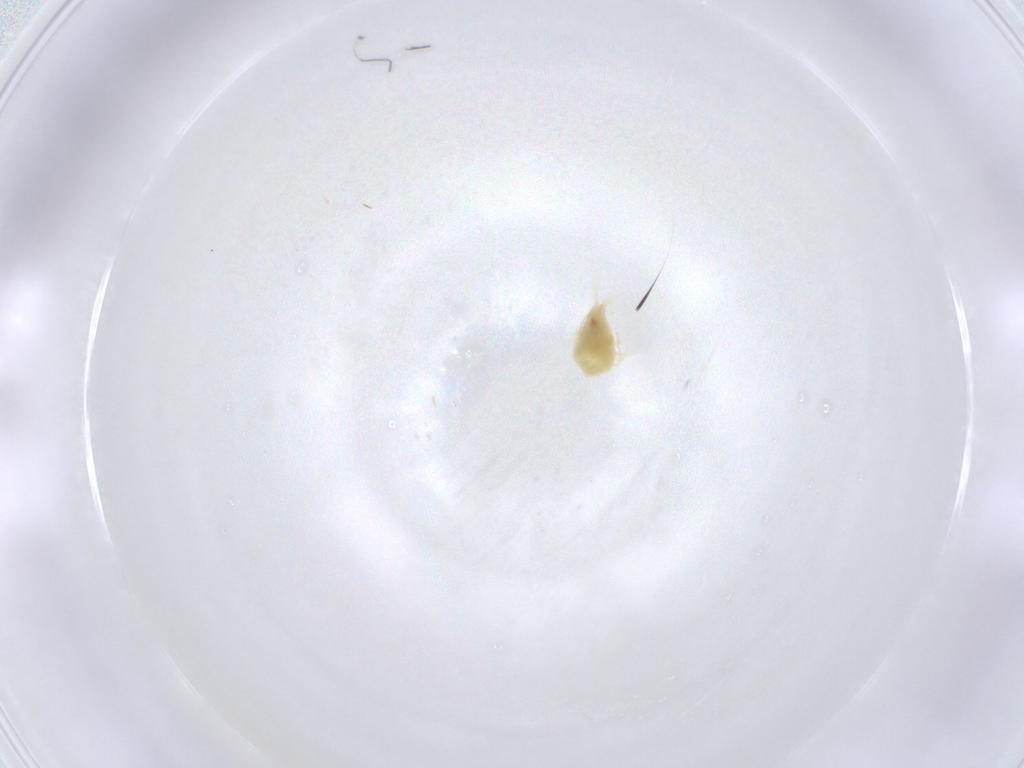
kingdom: Animalia
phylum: Arthropoda
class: Arachnida
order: Trombidiformes
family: Tetranychidae
